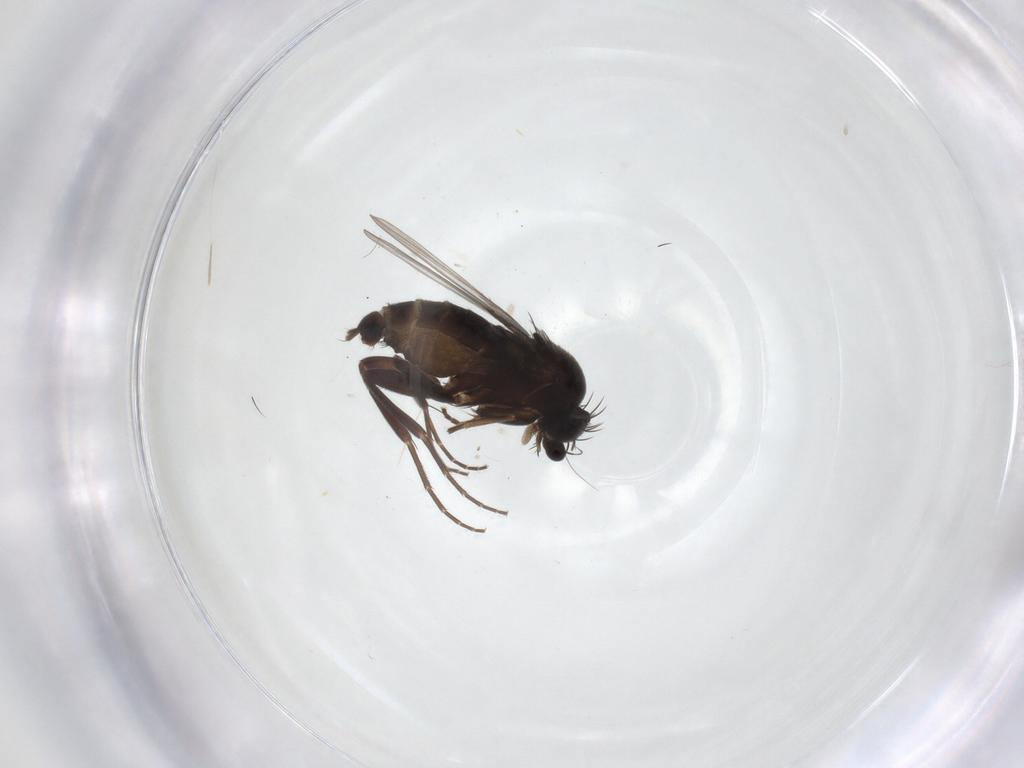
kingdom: Animalia
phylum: Arthropoda
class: Insecta
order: Diptera
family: Phoridae
